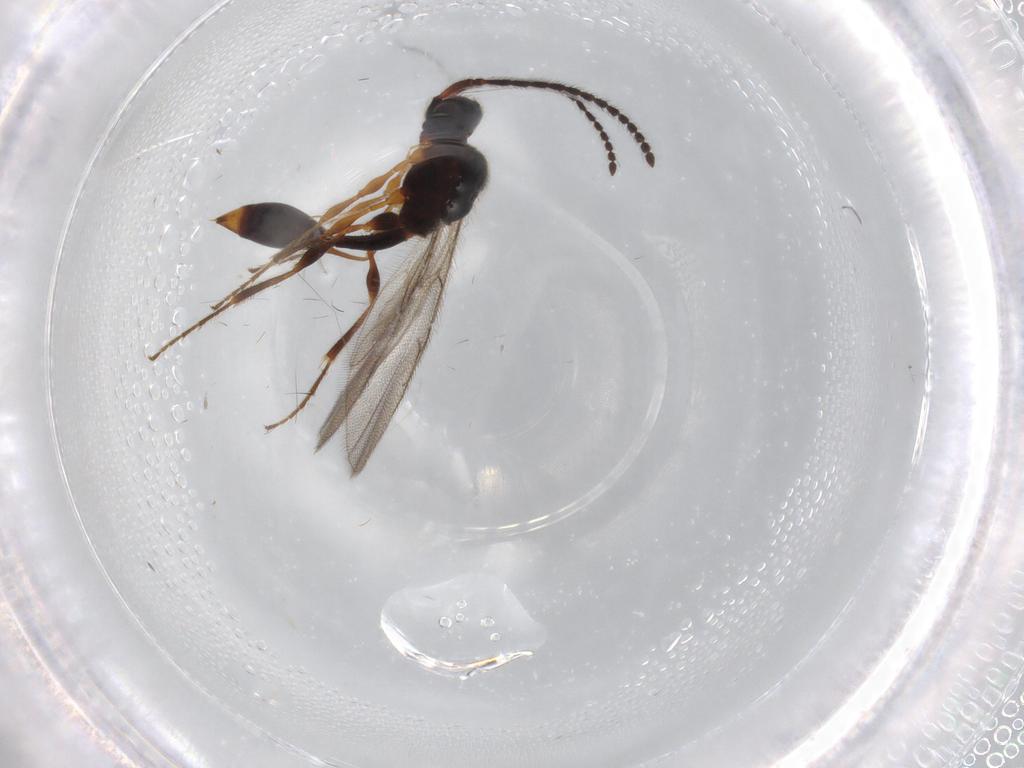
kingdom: Animalia
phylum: Arthropoda
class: Insecta
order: Hymenoptera
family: Diapriidae
